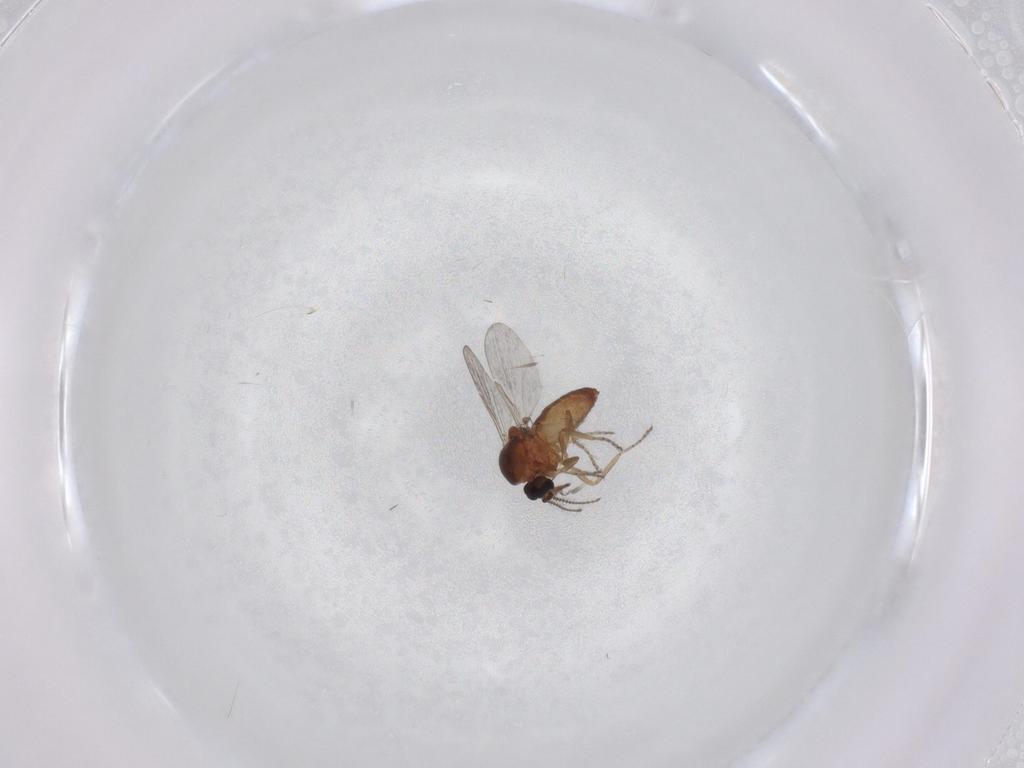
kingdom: Animalia
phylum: Arthropoda
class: Insecta
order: Diptera
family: Ceratopogonidae
